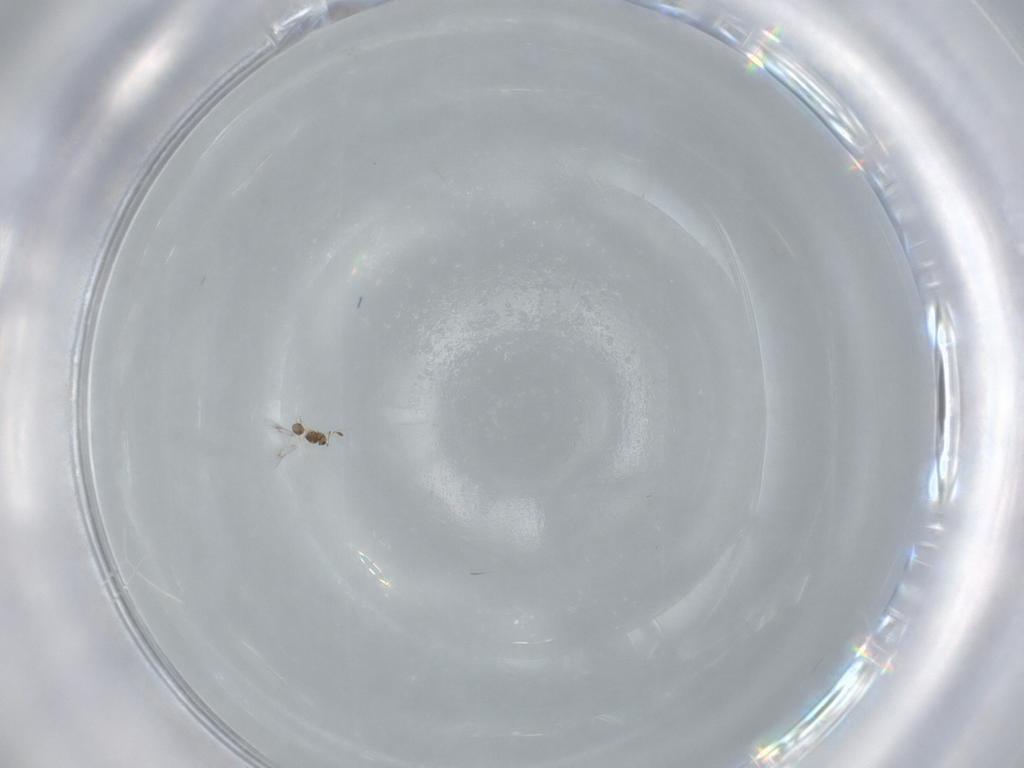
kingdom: Animalia
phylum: Arthropoda
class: Insecta
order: Hymenoptera
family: Mymarommatidae
